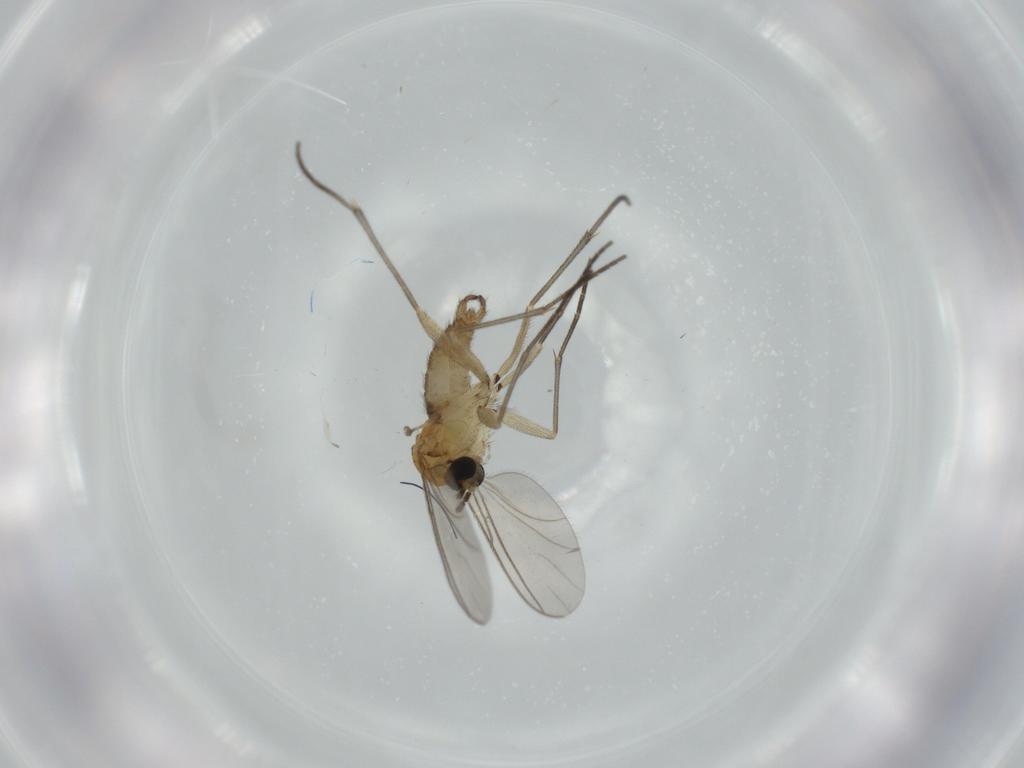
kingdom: Animalia
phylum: Arthropoda
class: Insecta
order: Diptera
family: Sciaridae
